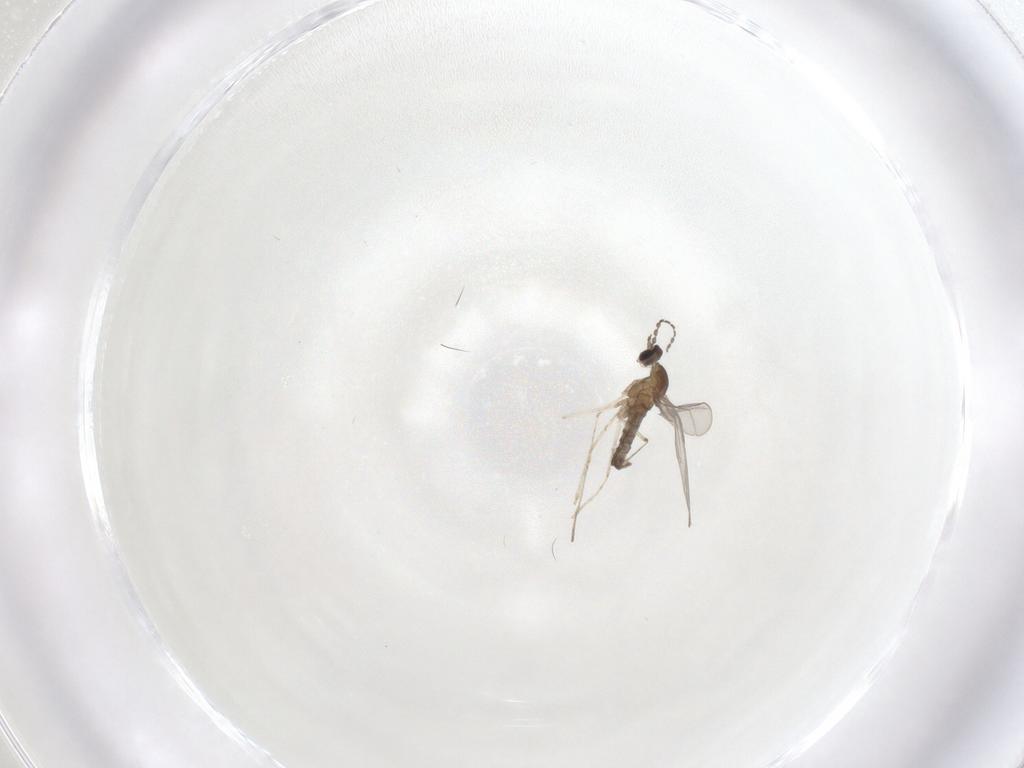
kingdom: Animalia
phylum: Arthropoda
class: Insecta
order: Diptera
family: Cecidomyiidae
